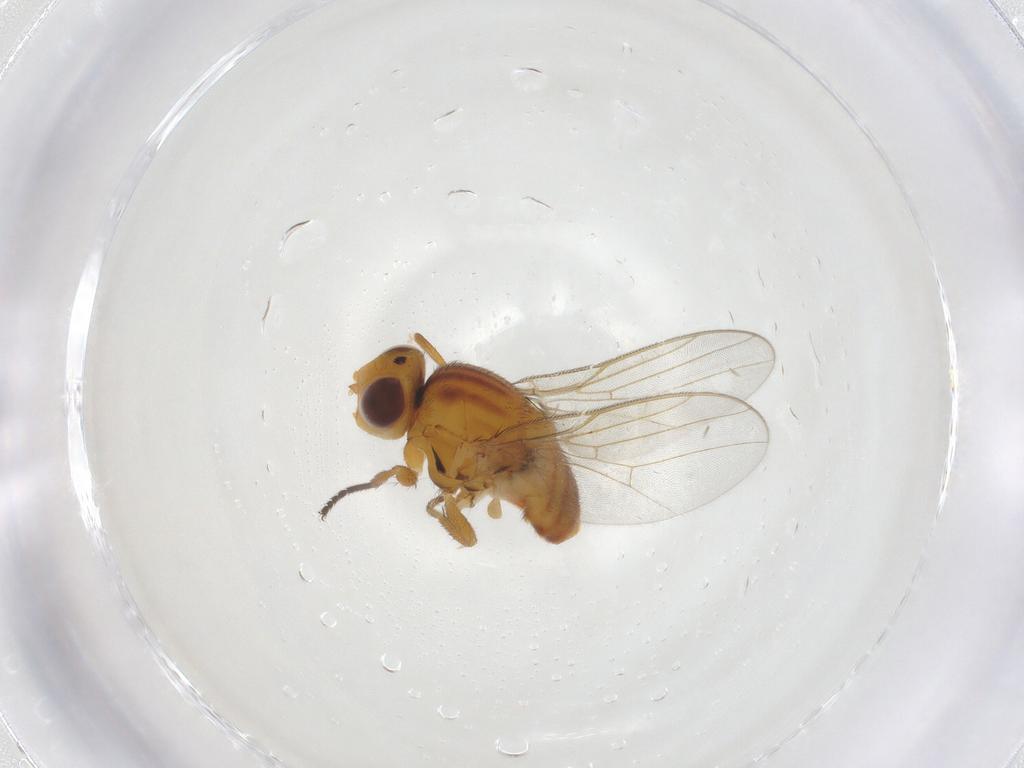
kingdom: Animalia
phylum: Arthropoda
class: Insecta
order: Diptera
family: Chloropidae
